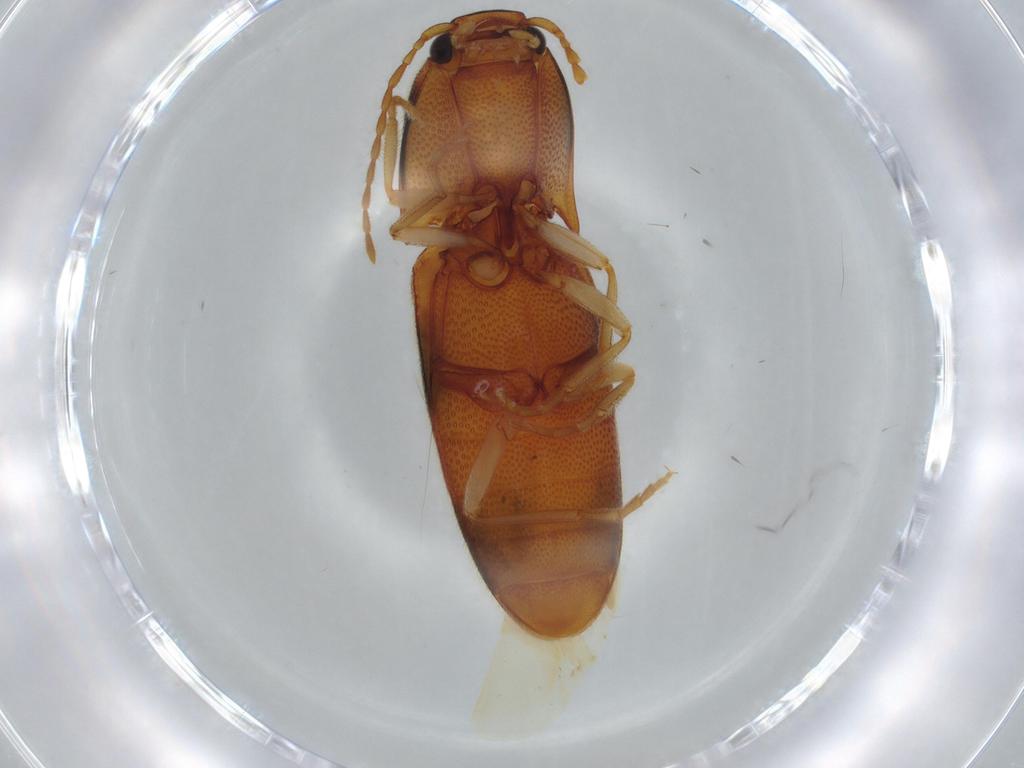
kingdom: Animalia
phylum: Arthropoda
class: Insecta
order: Coleoptera
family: Elateridae
